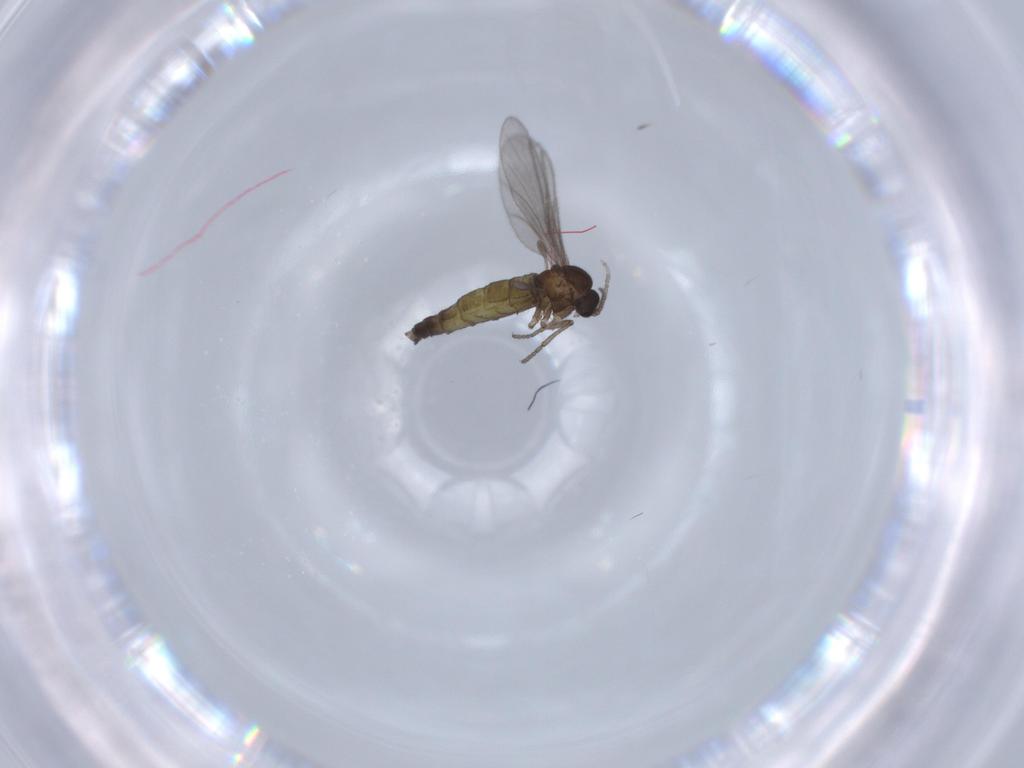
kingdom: Animalia
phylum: Arthropoda
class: Insecta
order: Diptera
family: Sciaridae
